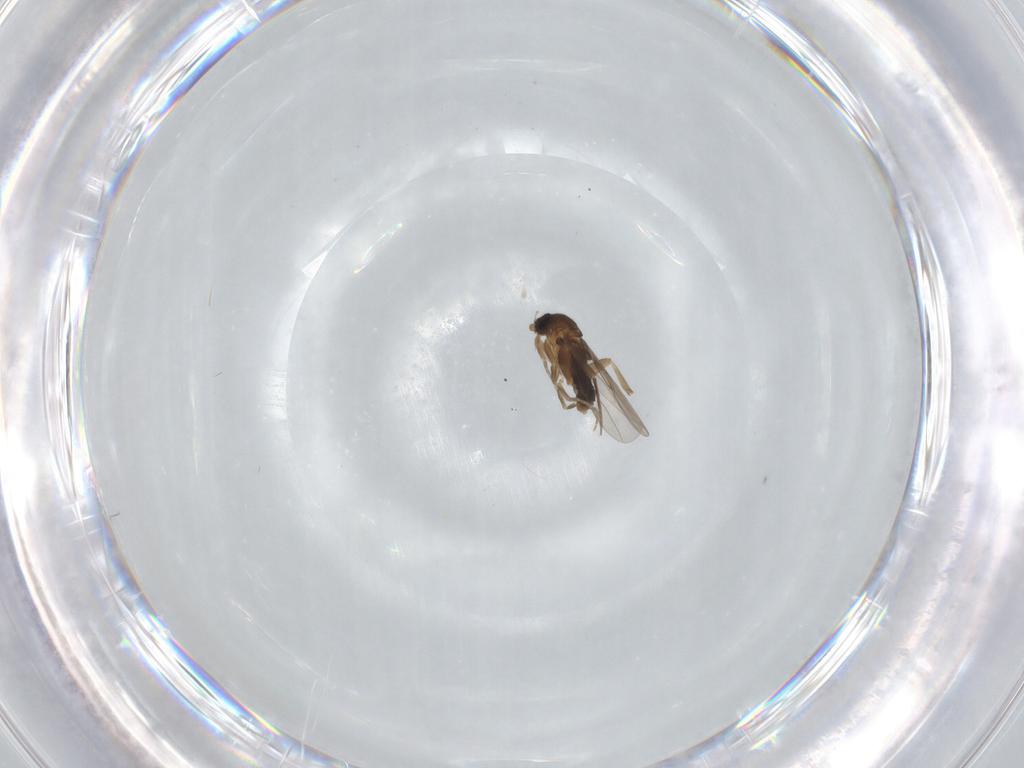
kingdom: Animalia
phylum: Arthropoda
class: Insecta
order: Diptera
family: Phoridae
